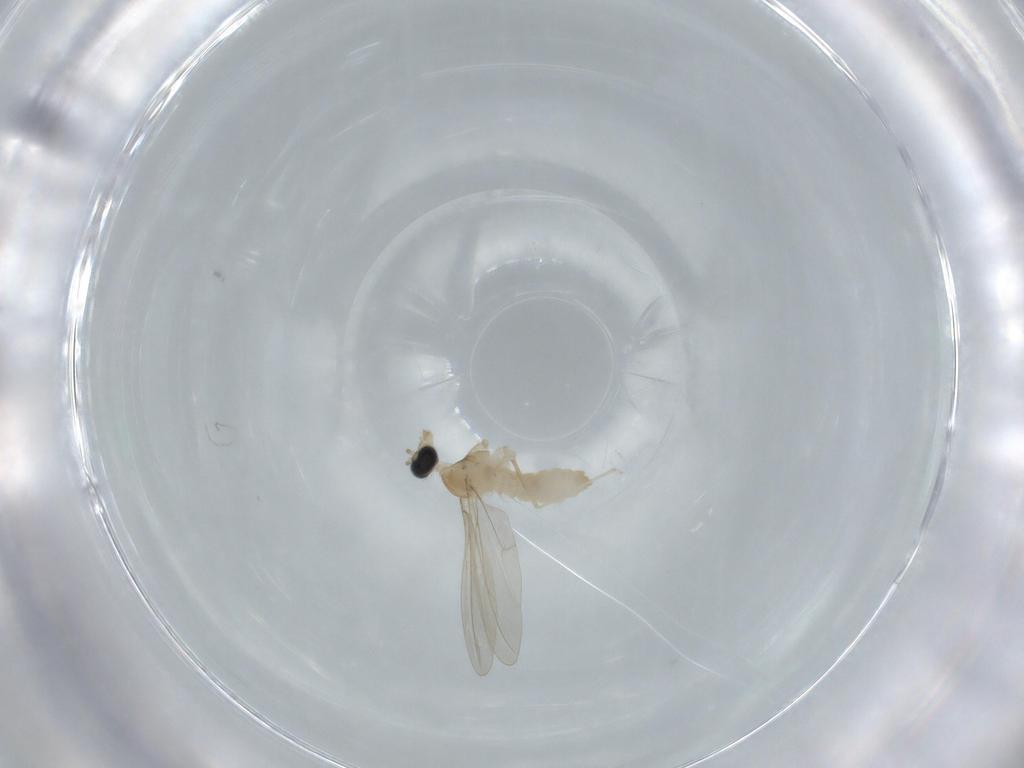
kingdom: Animalia
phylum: Arthropoda
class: Insecta
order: Diptera
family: Cecidomyiidae
